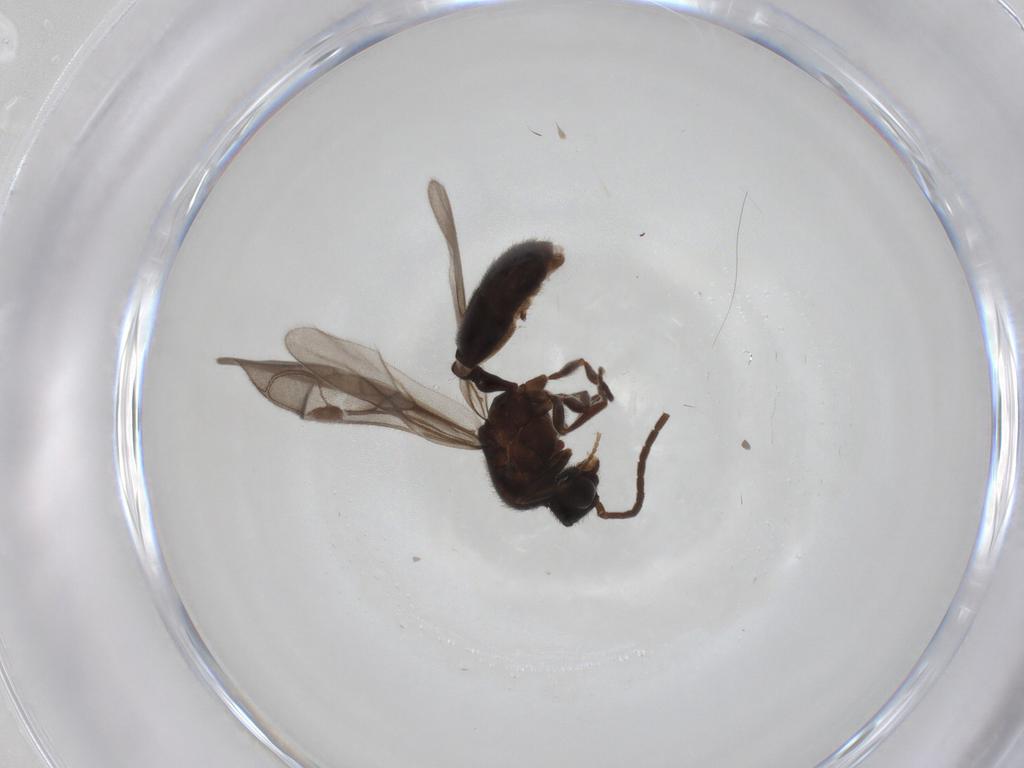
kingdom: Animalia
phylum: Arthropoda
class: Insecta
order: Hymenoptera
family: Formicidae
